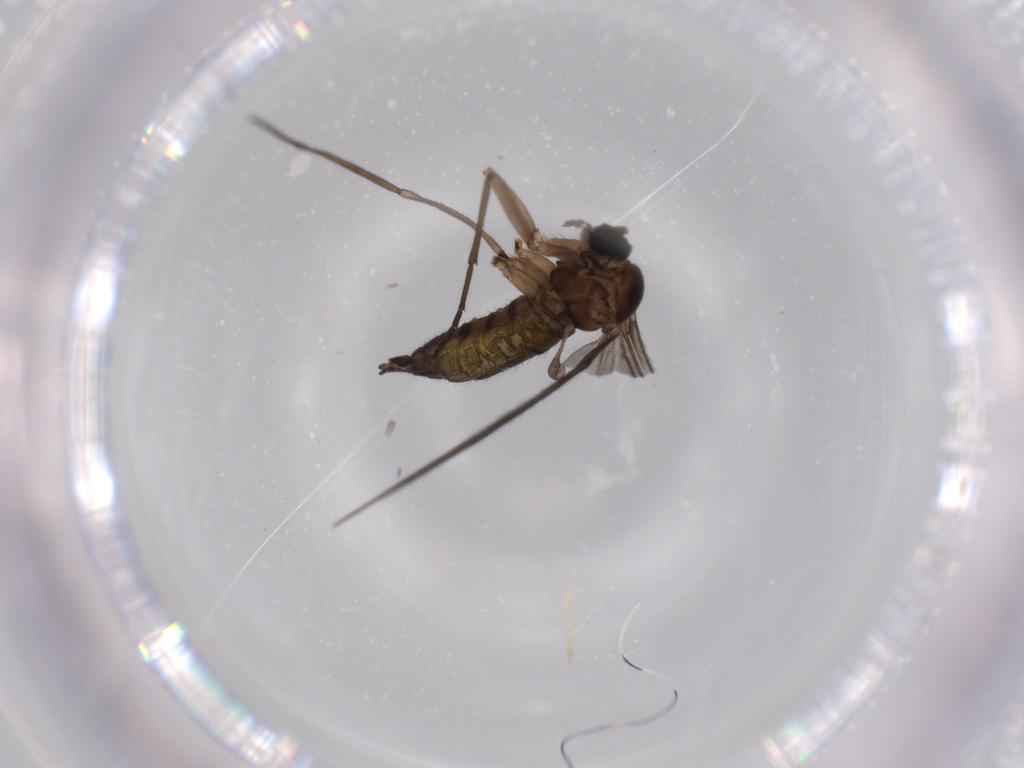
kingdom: Animalia
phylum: Arthropoda
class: Insecta
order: Diptera
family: Sciaridae
